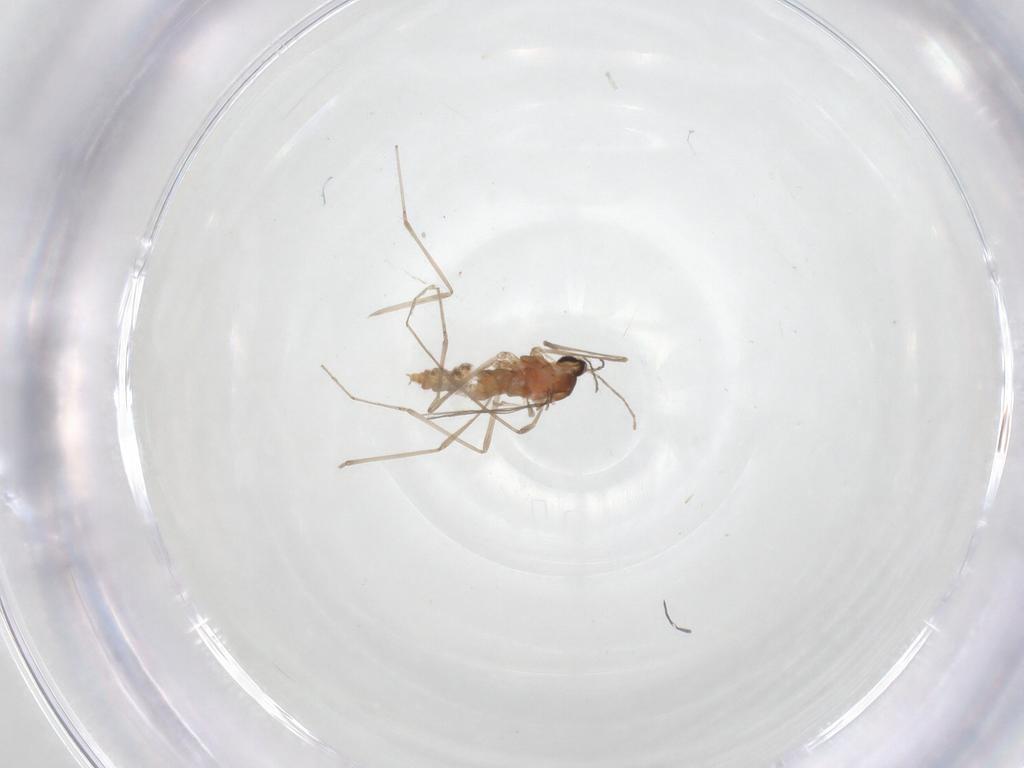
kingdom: Animalia
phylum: Arthropoda
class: Insecta
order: Diptera
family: Cecidomyiidae
